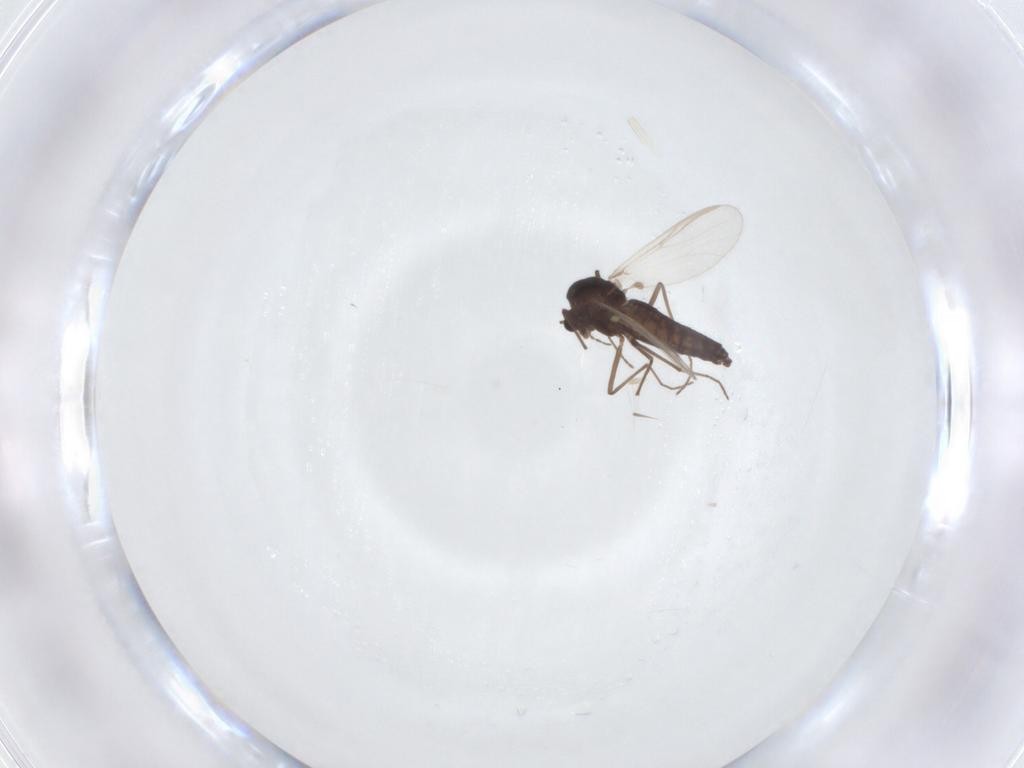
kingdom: Animalia
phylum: Arthropoda
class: Insecta
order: Diptera
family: Chironomidae
